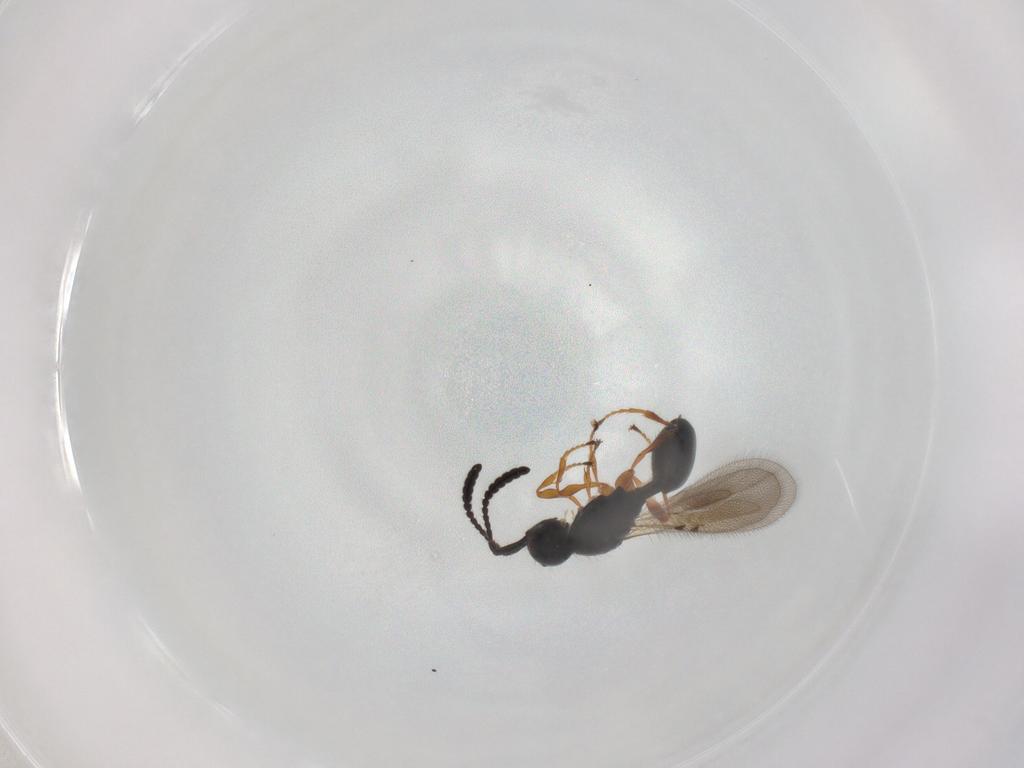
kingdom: Animalia
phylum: Arthropoda
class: Insecta
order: Hymenoptera
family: Diapriidae
